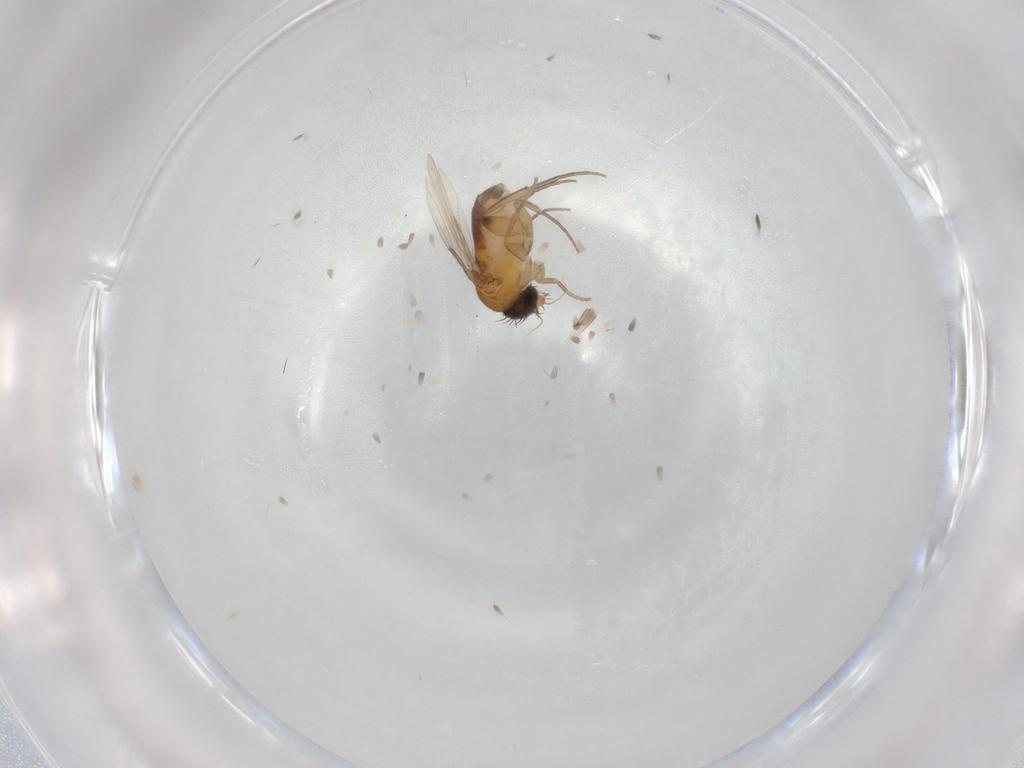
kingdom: Animalia
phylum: Arthropoda
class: Insecta
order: Diptera
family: Phoridae
